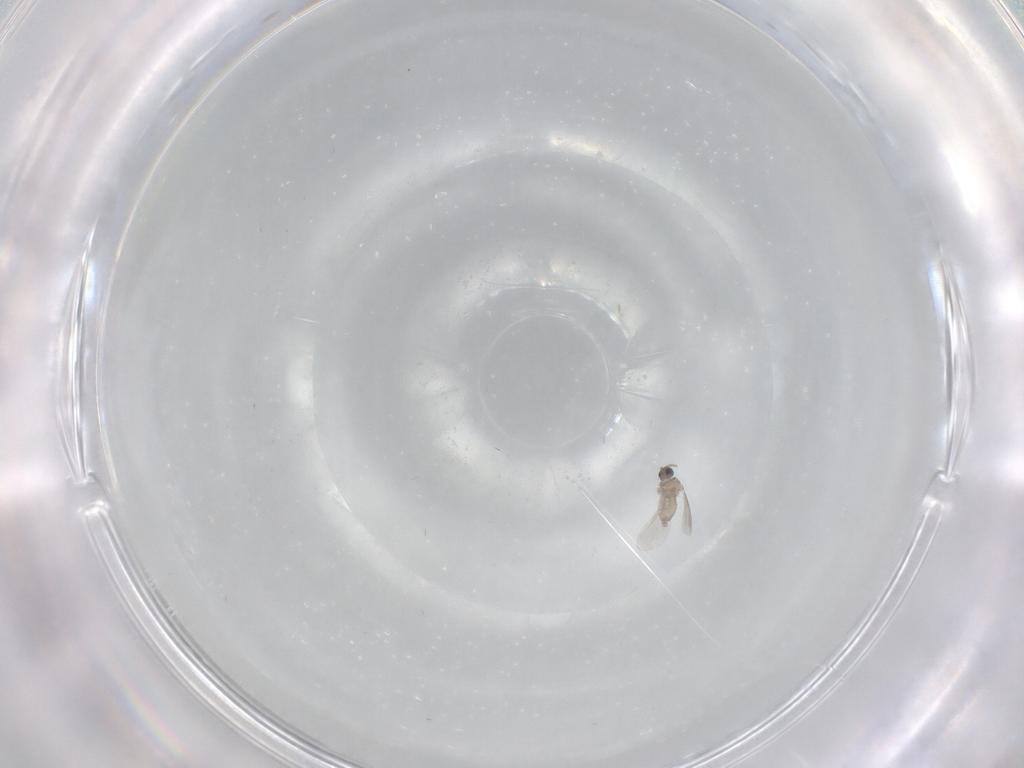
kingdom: Animalia
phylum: Arthropoda
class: Insecta
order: Diptera
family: Cecidomyiidae
